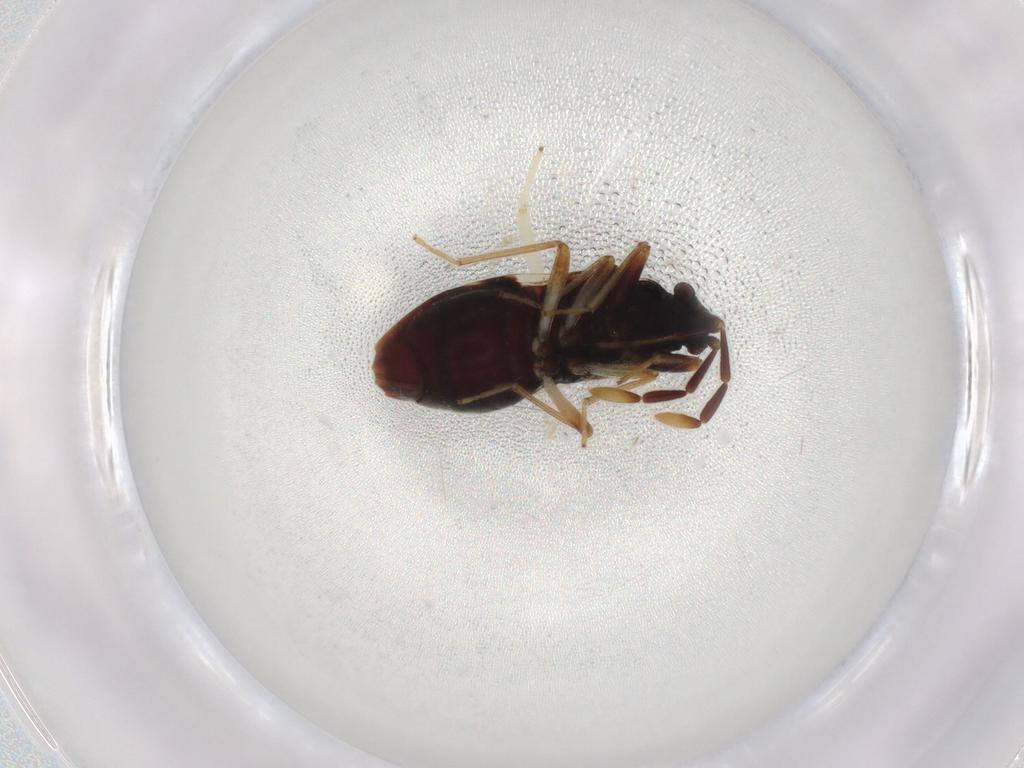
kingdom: Animalia
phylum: Arthropoda
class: Insecta
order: Hemiptera
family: Cicadellidae
